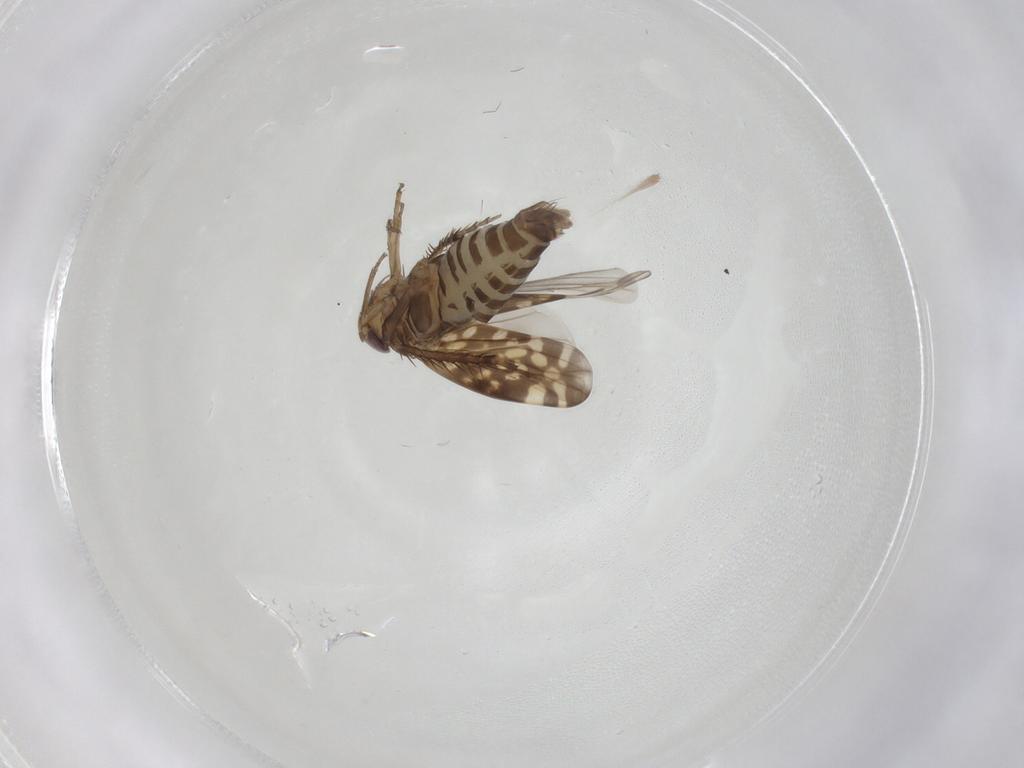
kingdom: Animalia
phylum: Arthropoda
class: Insecta
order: Hemiptera
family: Cicadellidae
